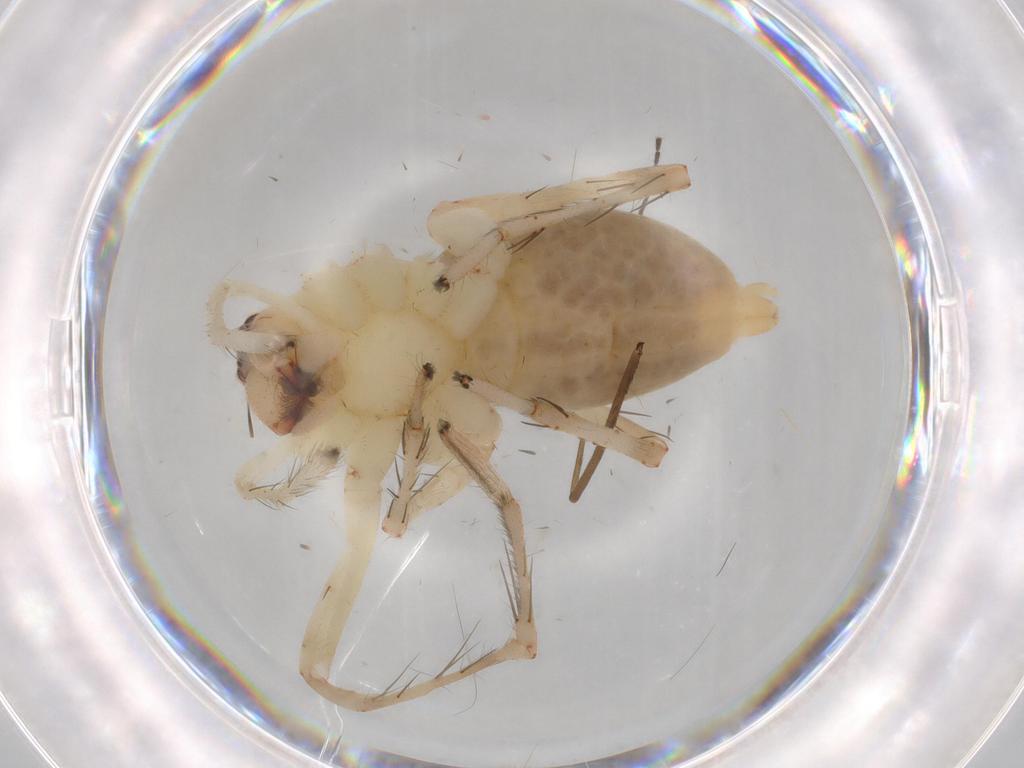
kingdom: Animalia
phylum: Arthropoda
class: Arachnida
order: Araneae
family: Anyphaenidae
